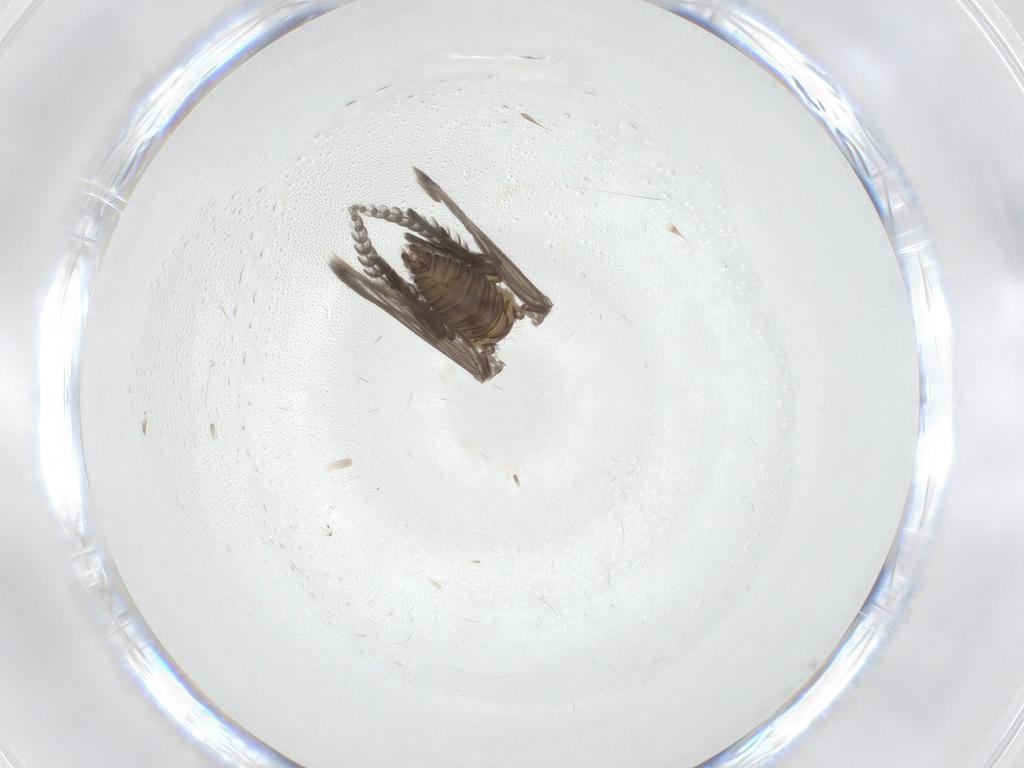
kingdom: Animalia
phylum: Arthropoda
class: Insecta
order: Diptera
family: Psychodidae
